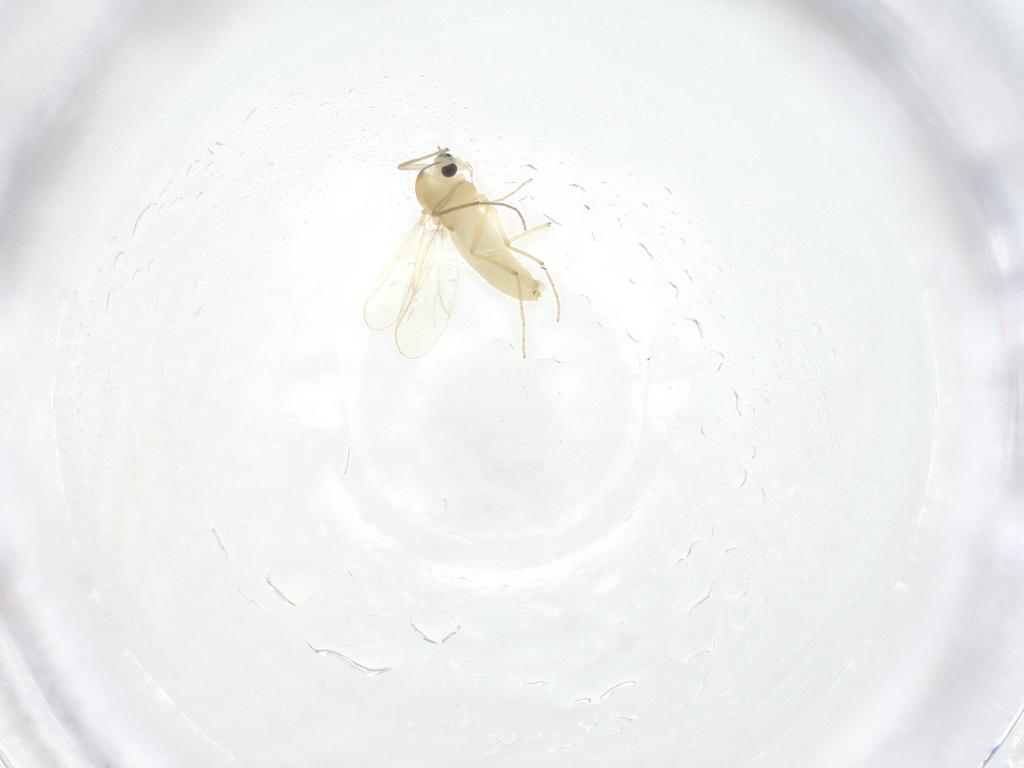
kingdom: Animalia
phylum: Arthropoda
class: Insecta
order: Diptera
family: Chironomidae
